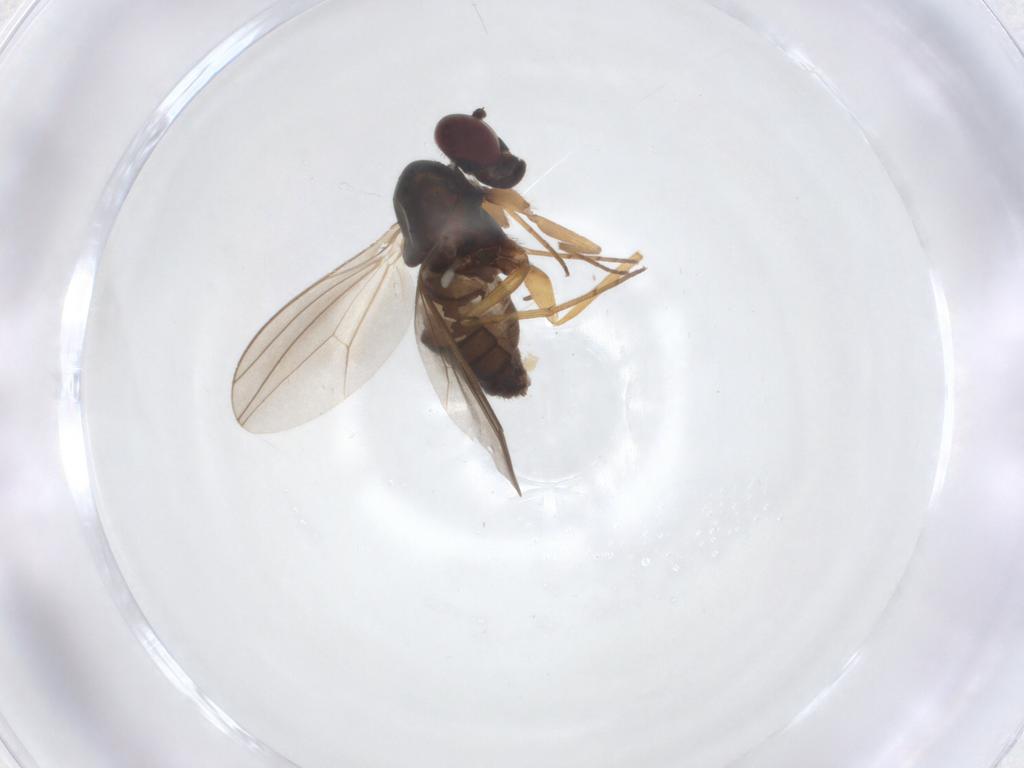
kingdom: Animalia
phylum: Arthropoda
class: Insecta
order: Diptera
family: Dolichopodidae
